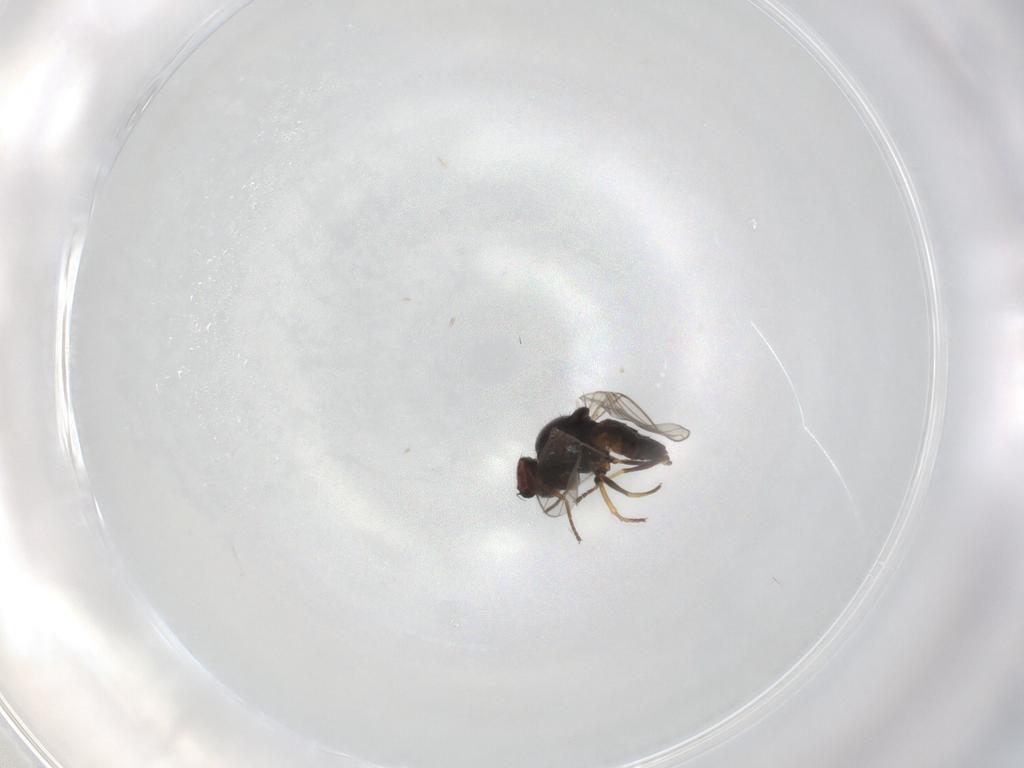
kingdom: Animalia
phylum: Arthropoda
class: Insecta
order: Diptera
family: Chloropidae
